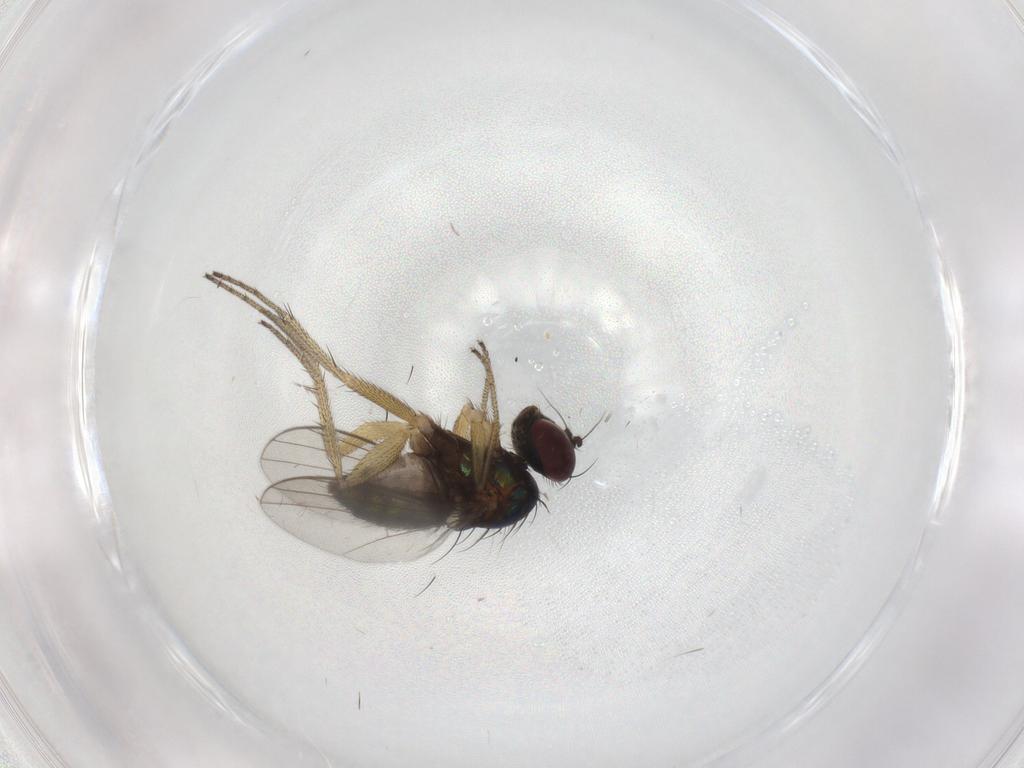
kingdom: Animalia
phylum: Arthropoda
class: Insecta
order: Diptera
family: Dolichopodidae
